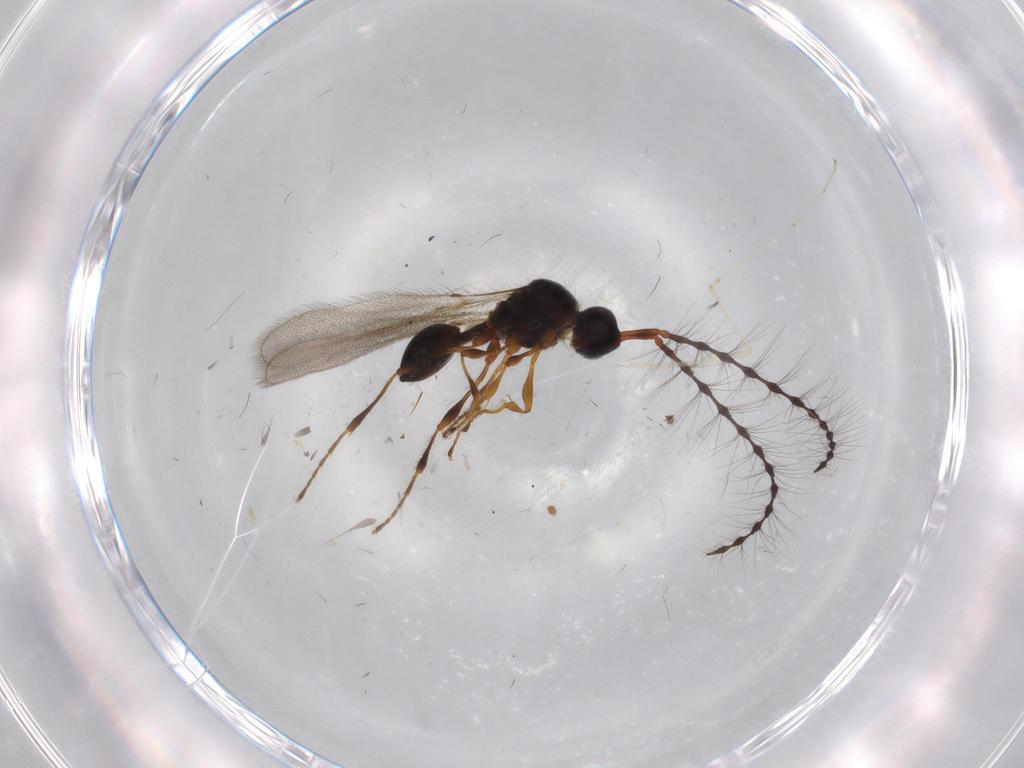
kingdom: Animalia
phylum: Arthropoda
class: Insecta
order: Hymenoptera
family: Diapriidae
